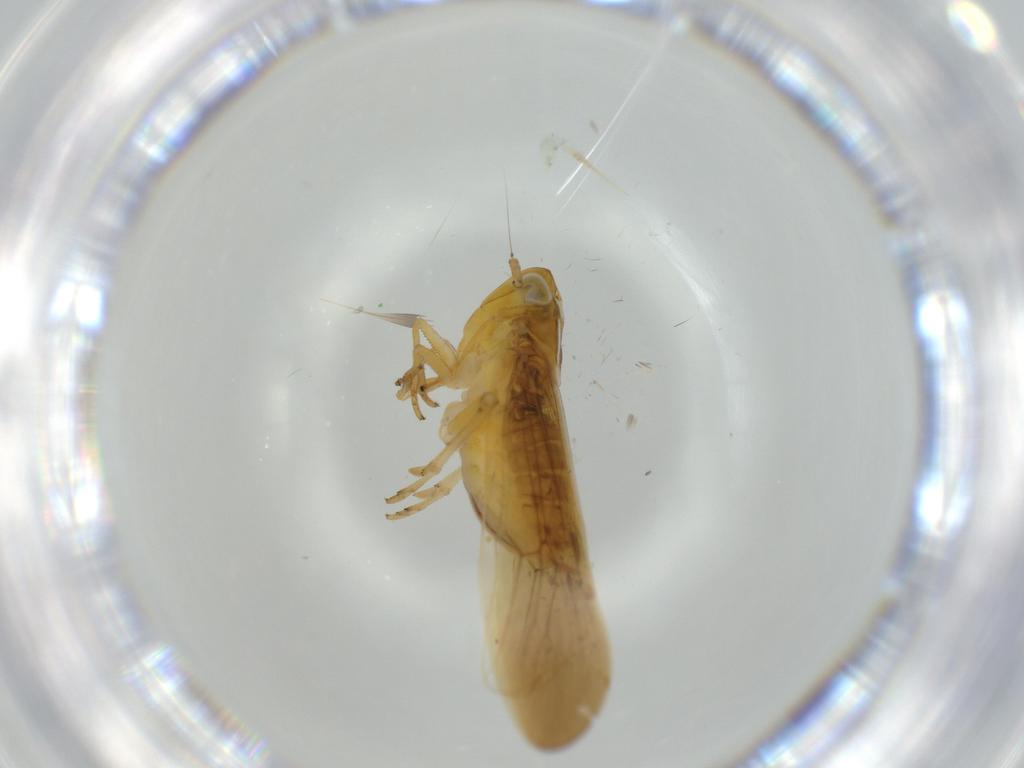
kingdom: Animalia
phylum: Arthropoda
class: Insecta
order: Hemiptera
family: Delphacidae
